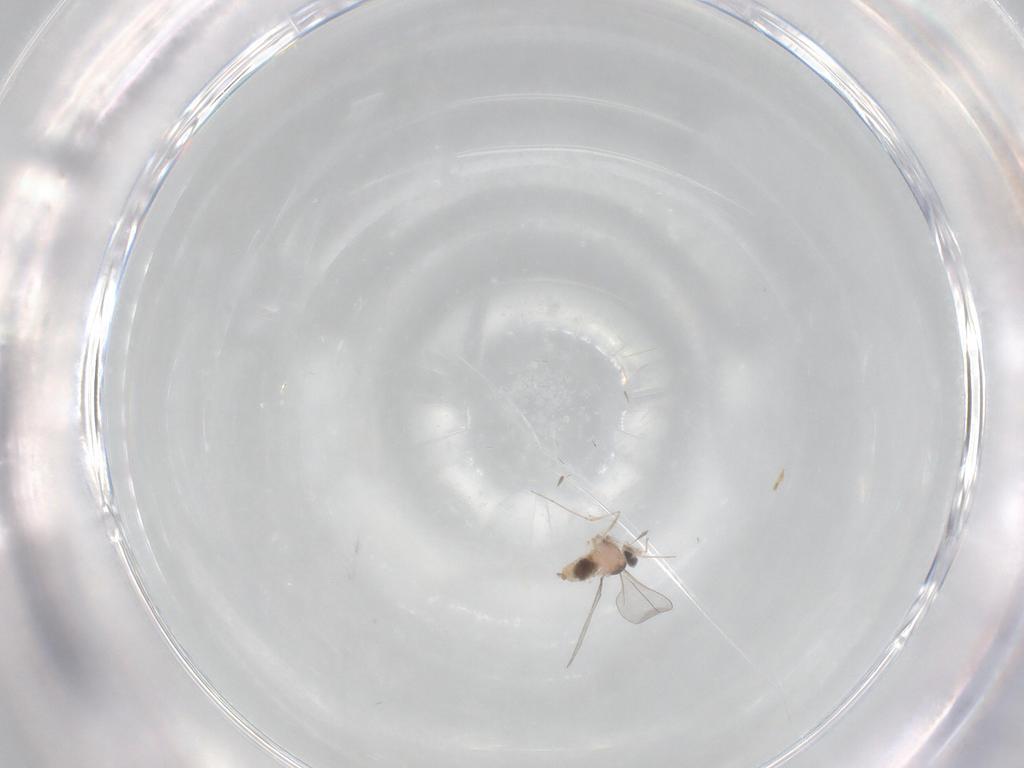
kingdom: Animalia
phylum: Arthropoda
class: Insecta
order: Diptera
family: Cecidomyiidae
